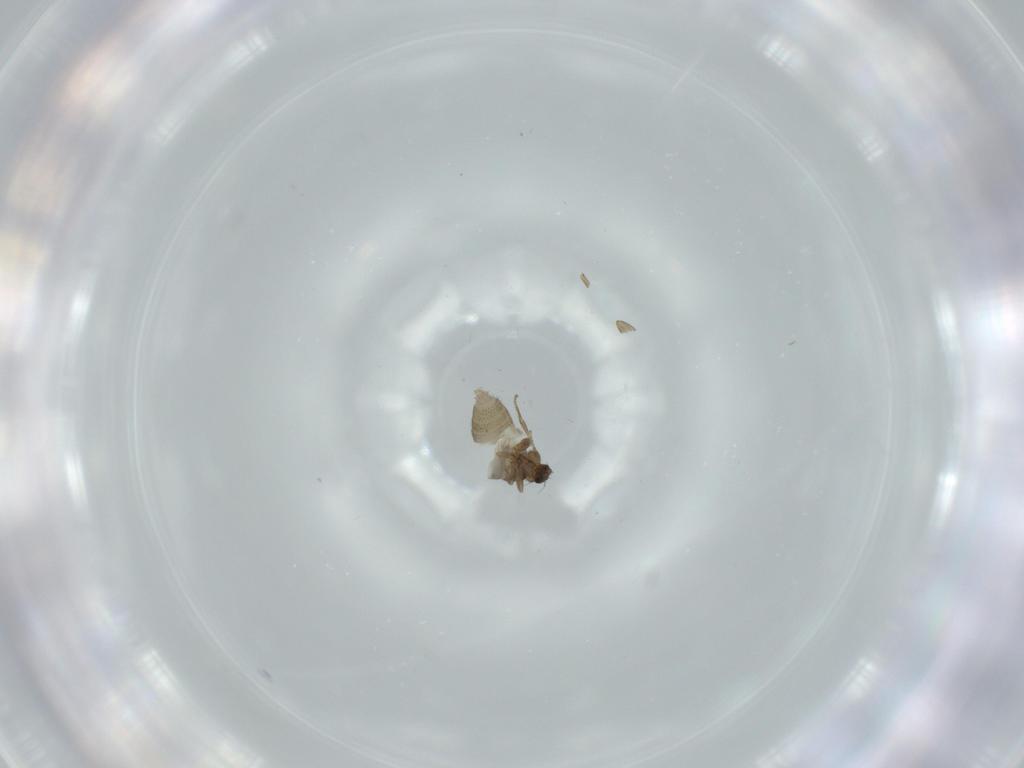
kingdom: Animalia
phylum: Arthropoda
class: Insecta
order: Diptera
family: Phoridae
